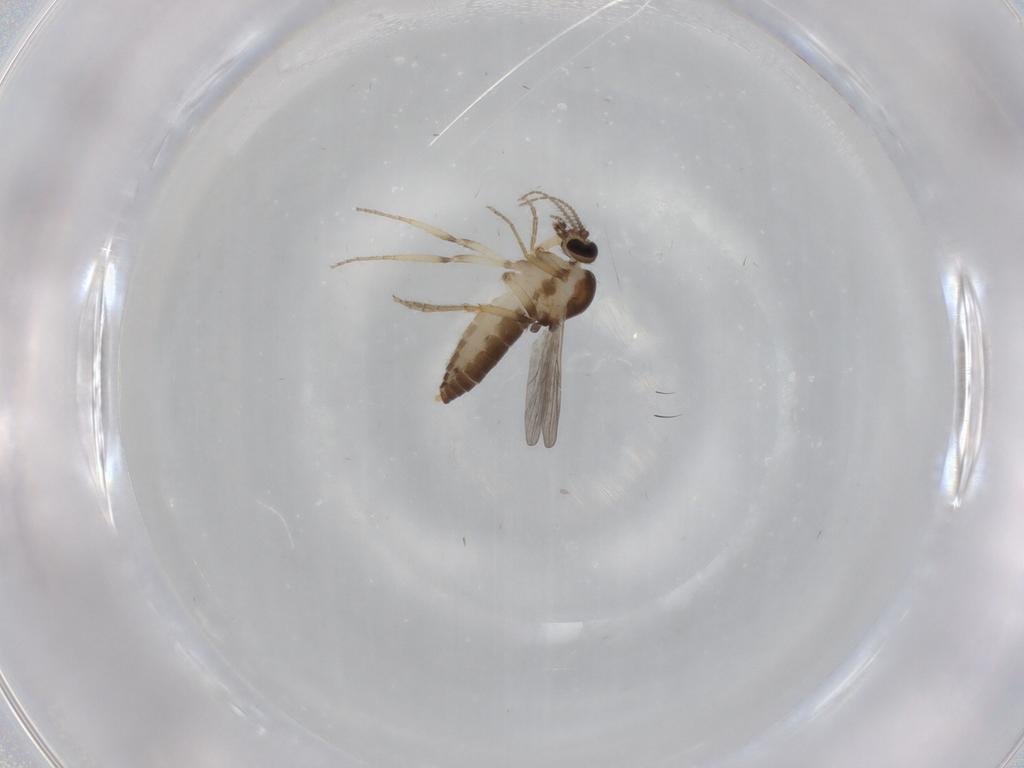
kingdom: Animalia
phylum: Arthropoda
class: Insecta
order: Diptera
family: Ceratopogonidae
